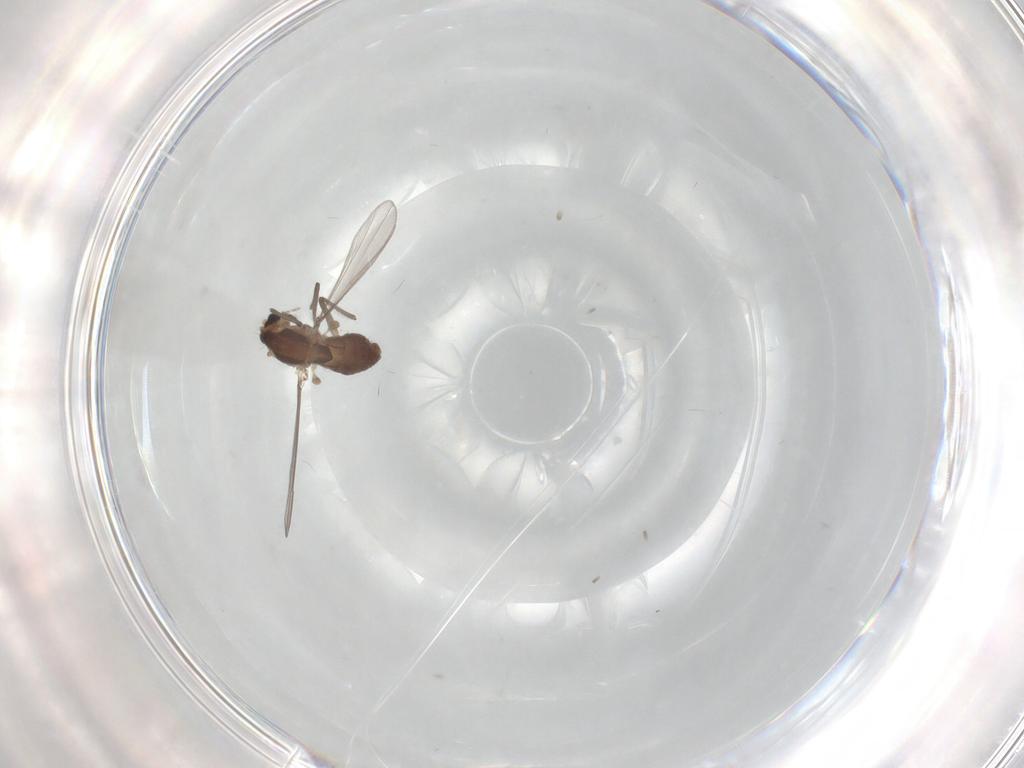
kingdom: Animalia
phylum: Arthropoda
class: Insecta
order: Diptera
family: Chironomidae
